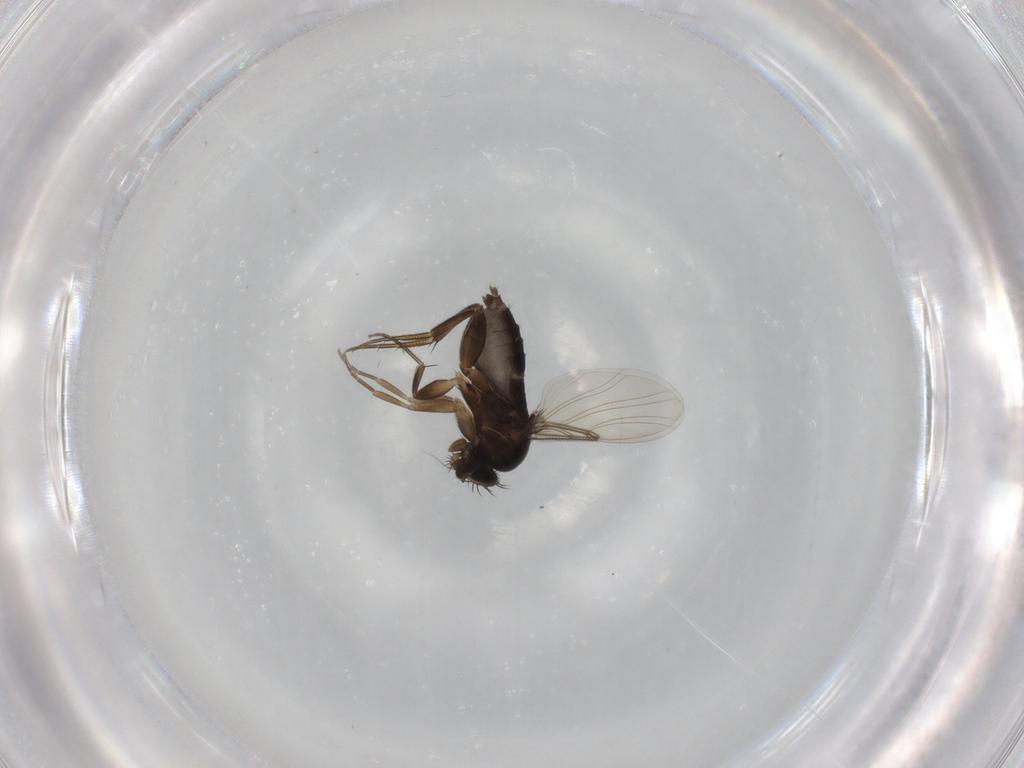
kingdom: Animalia
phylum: Arthropoda
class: Insecta
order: Diptera
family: Phoridae
